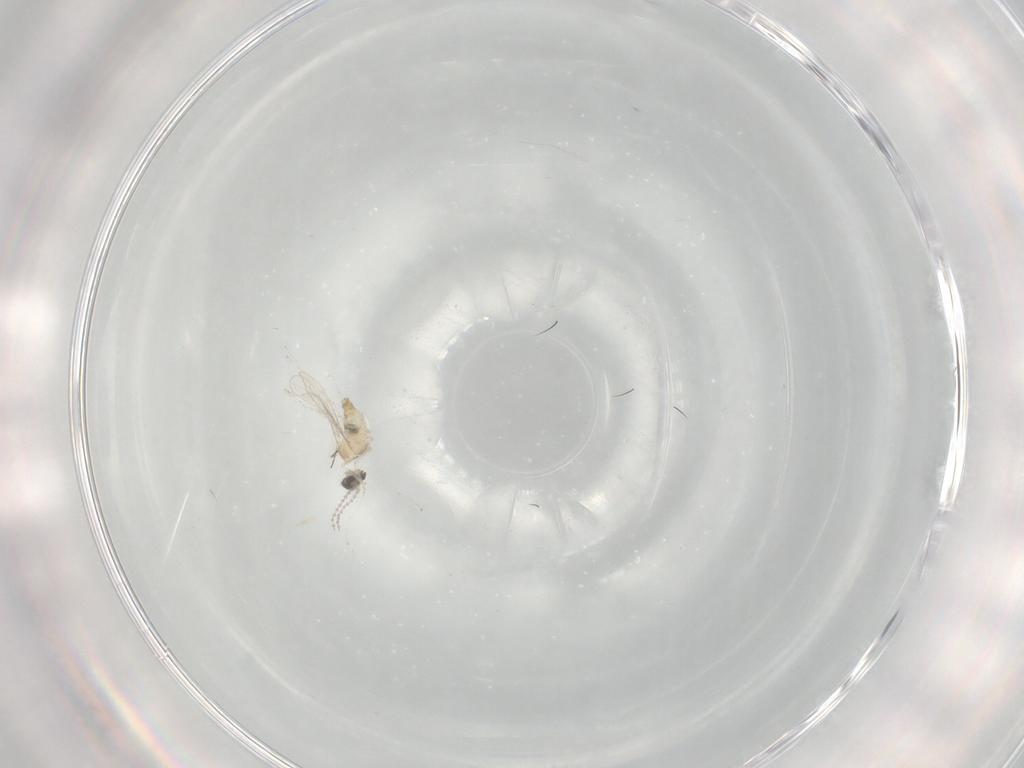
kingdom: Animalia
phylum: Arthropoda
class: Insecta
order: Diptera
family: Cecidomyiidae
